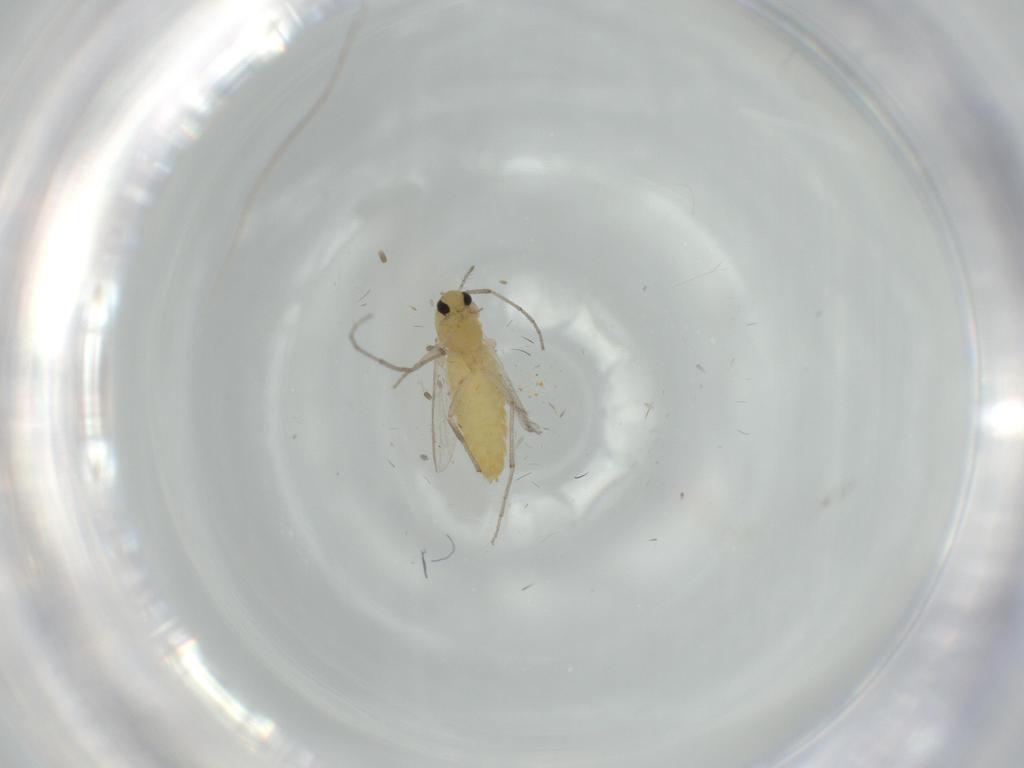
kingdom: Animalia
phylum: Arthropoda
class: Insecta
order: Diptera
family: Chironomidae
